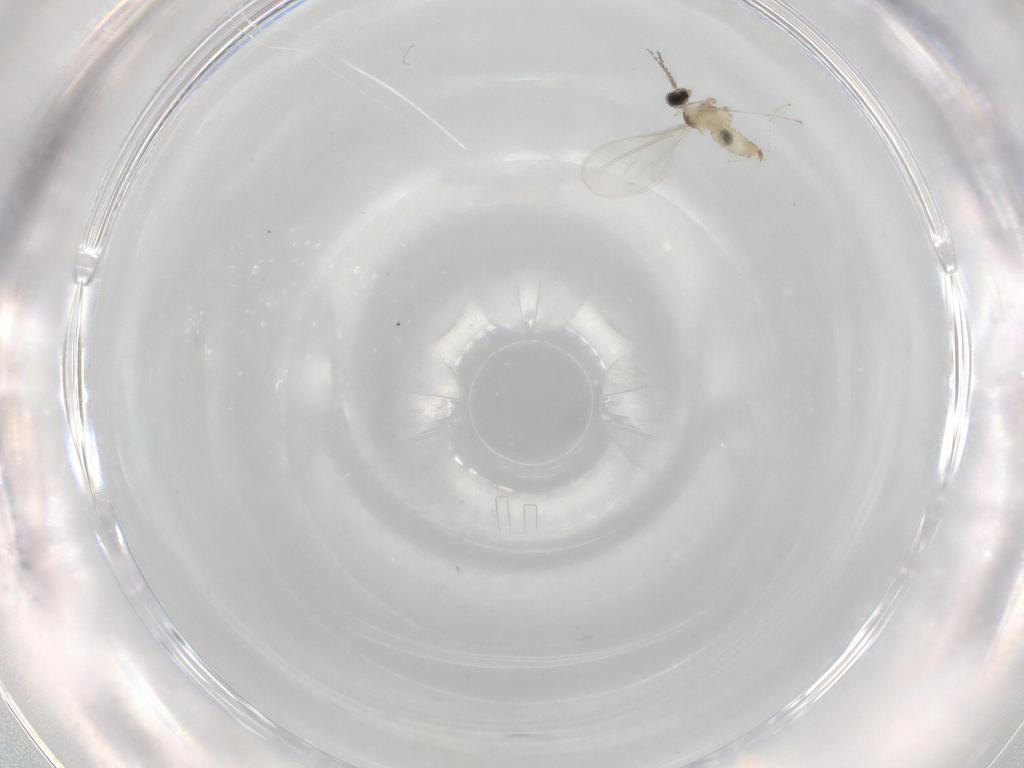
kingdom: Animalia
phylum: Arthropoda
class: Insecta
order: Diptera
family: Cecidomyiidae
